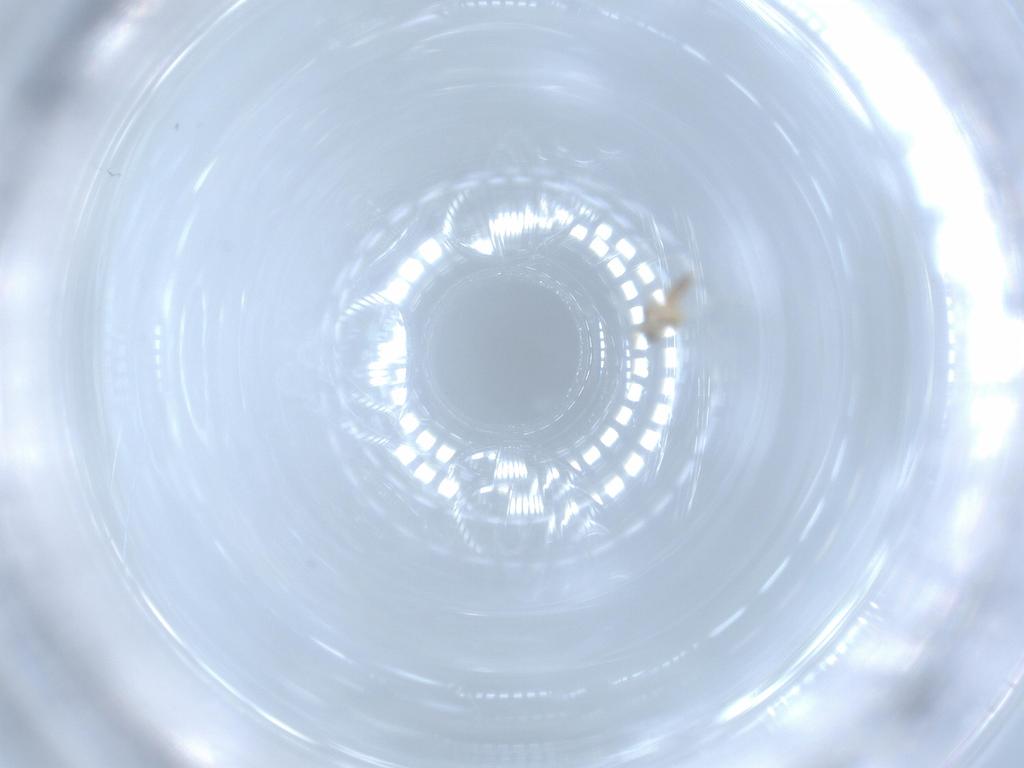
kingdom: Animalia
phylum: Arthropoda
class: Insecta
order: Diptera
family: Cecidomyiidae
